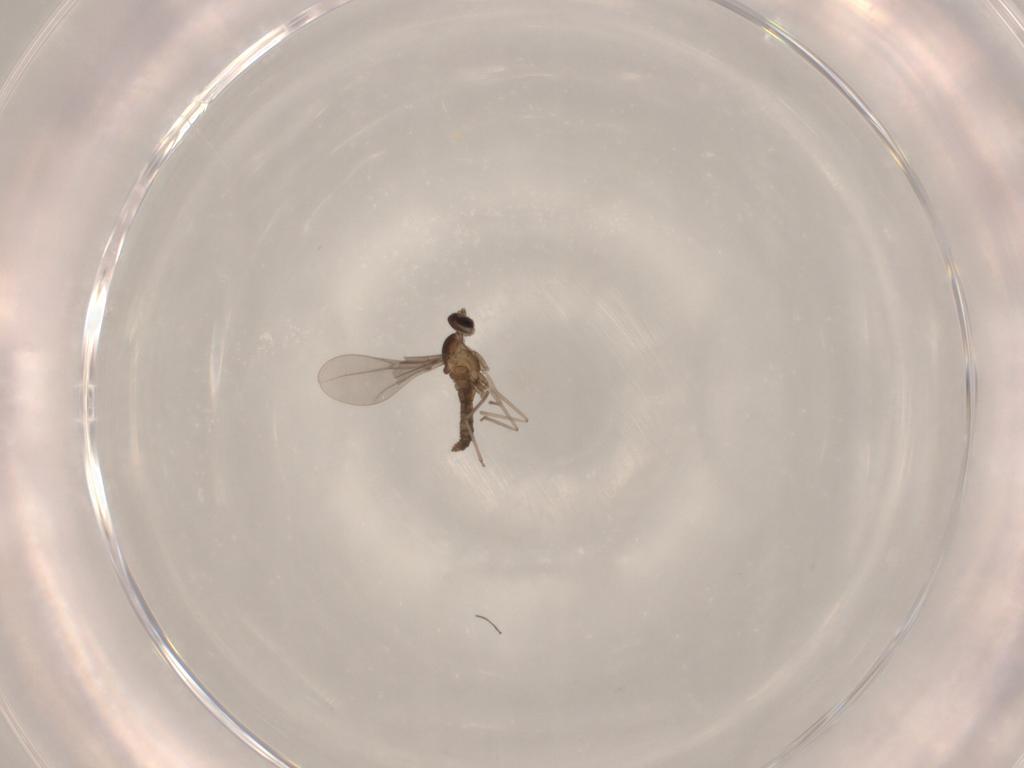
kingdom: Animalia
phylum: Arthropoda
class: Insecta
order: Diptera
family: Cecidomyiidae
